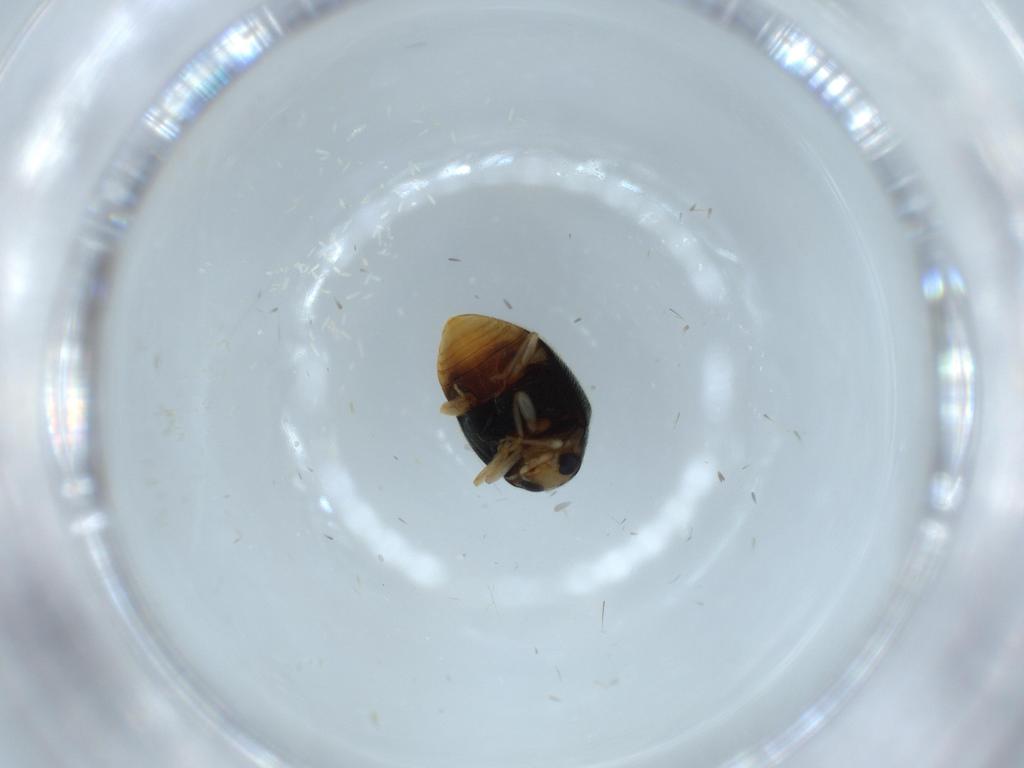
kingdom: Animalia
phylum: Arthropoda
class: Insecta
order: Coleoptera
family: Coccinellidae
